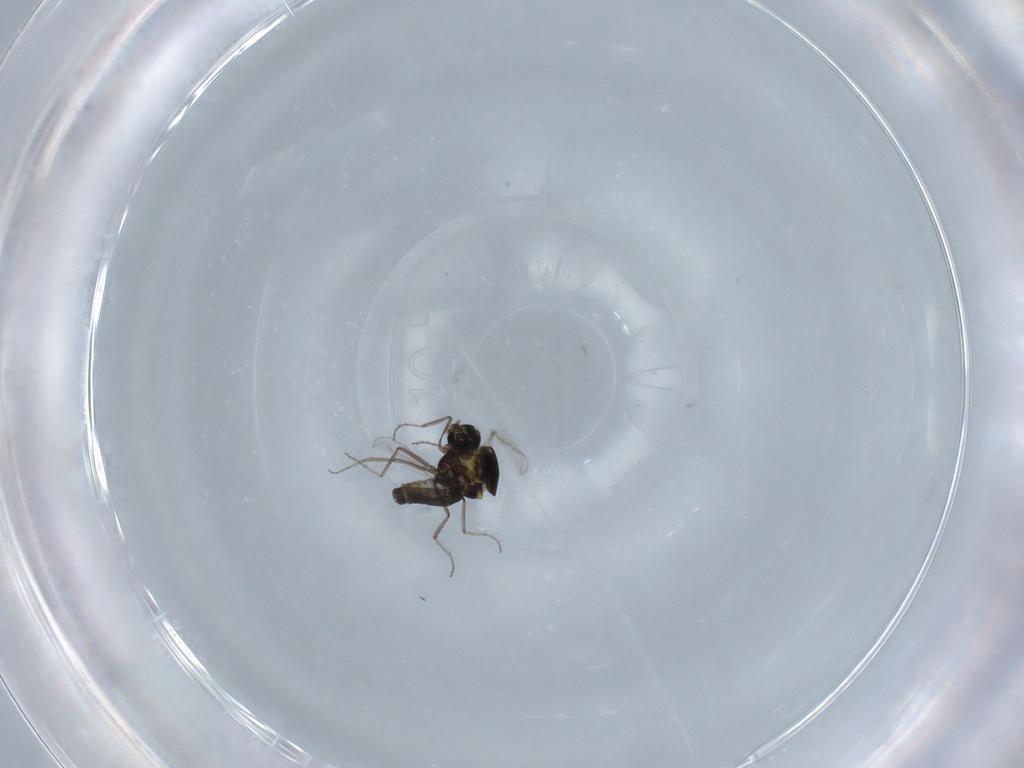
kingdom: Animalia
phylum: Arthropoda
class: Insecta
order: Diptera
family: Ceratopogonidae
